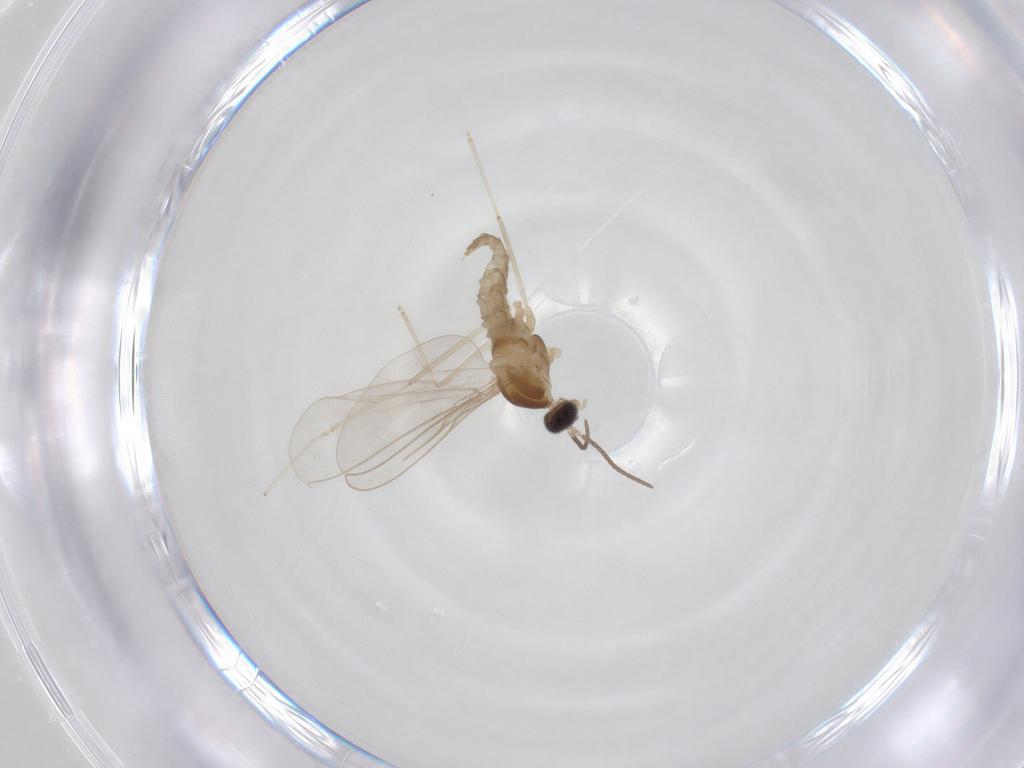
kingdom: Animalia
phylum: Arthropoda
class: Insecta
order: Diptera
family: Cecidomyiidae
